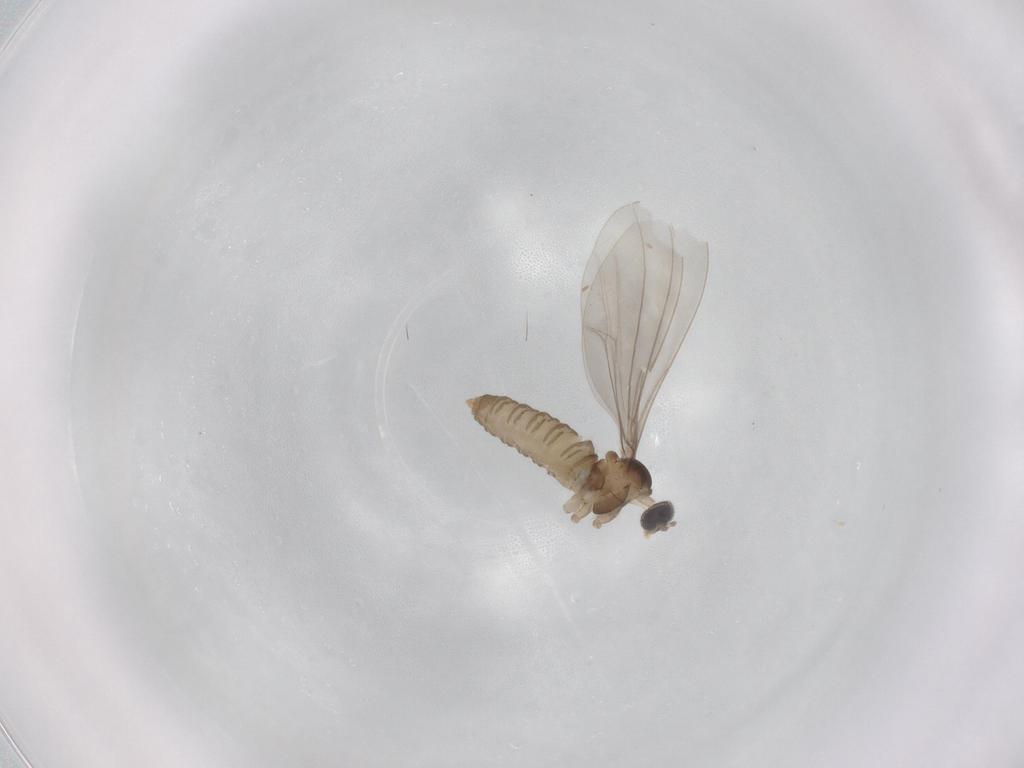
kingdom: Animalia
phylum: Arthropoda
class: Insecta
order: Diptera
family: Cecidomyiidae
